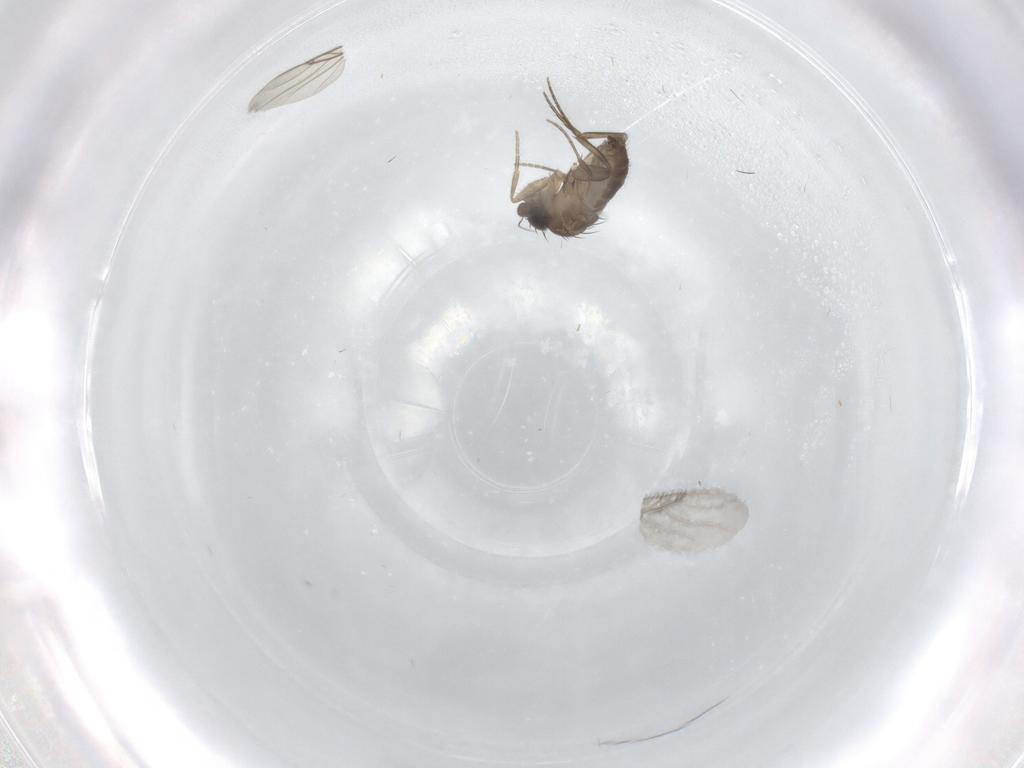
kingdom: Animalia
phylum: Arthropoda
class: Insecta
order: Diptera
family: Phoridae
